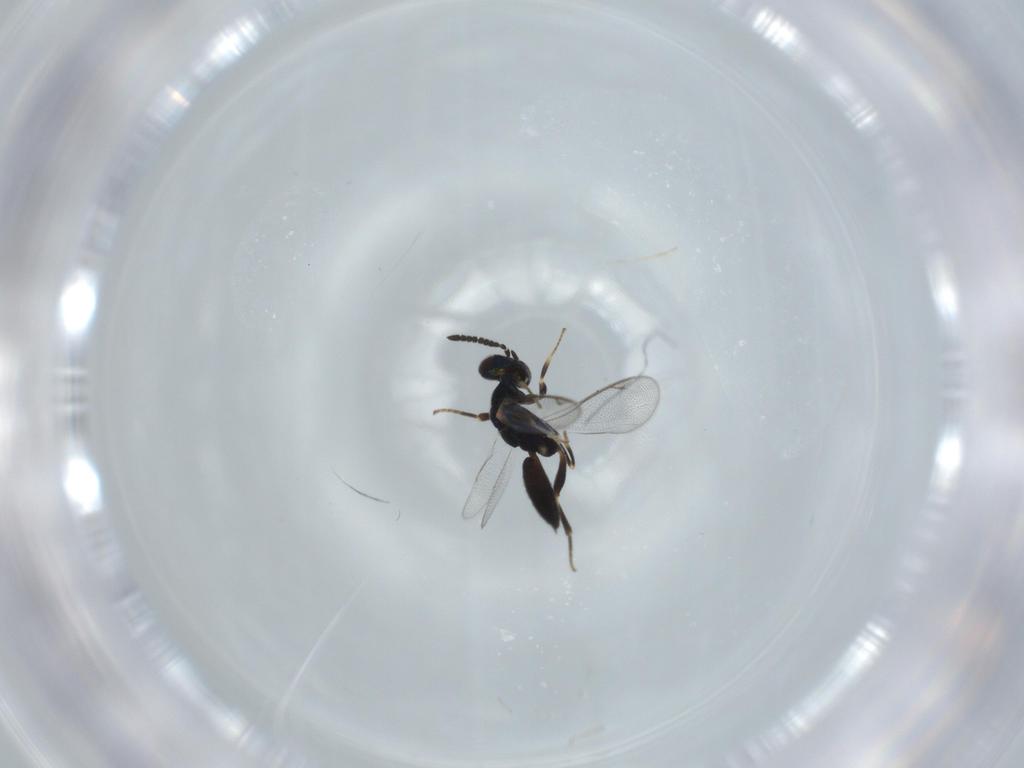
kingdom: Animalia
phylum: Arthropoda
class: Insecta
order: Hymenoptera
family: Cleonyminae
